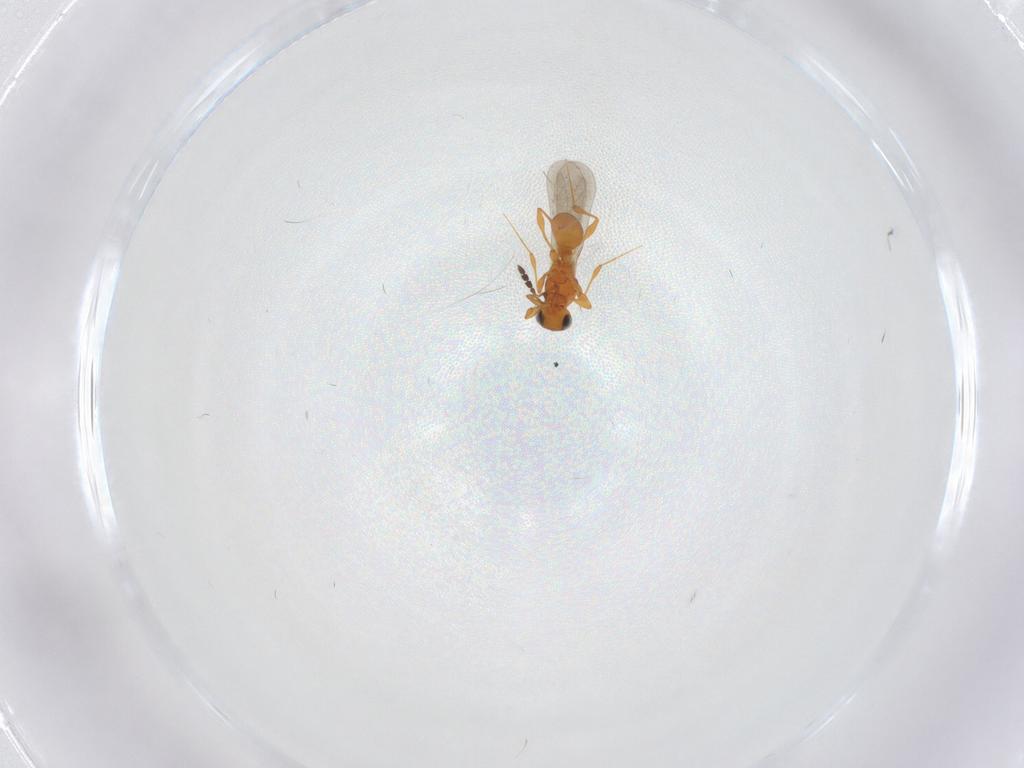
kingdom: Animalia
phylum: Arthropoda
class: Insecta
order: Hymenoptera
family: Platygastridae
